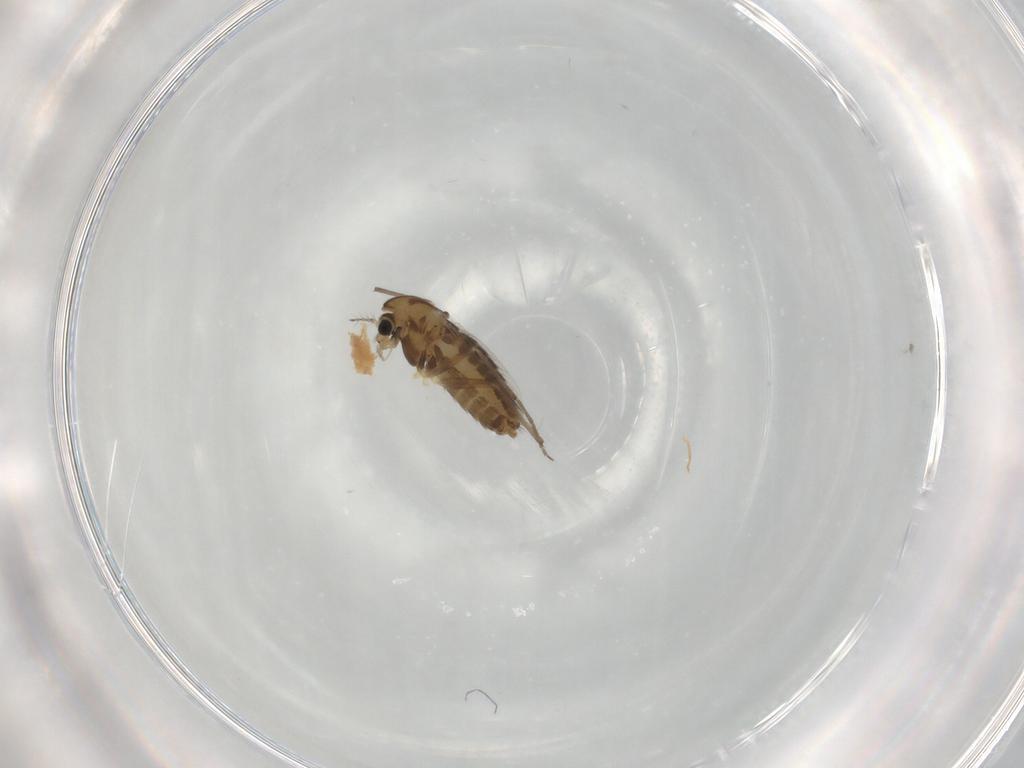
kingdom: Animalia
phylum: Arthropoda
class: Insecta
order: Diptera
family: Chironomidae
